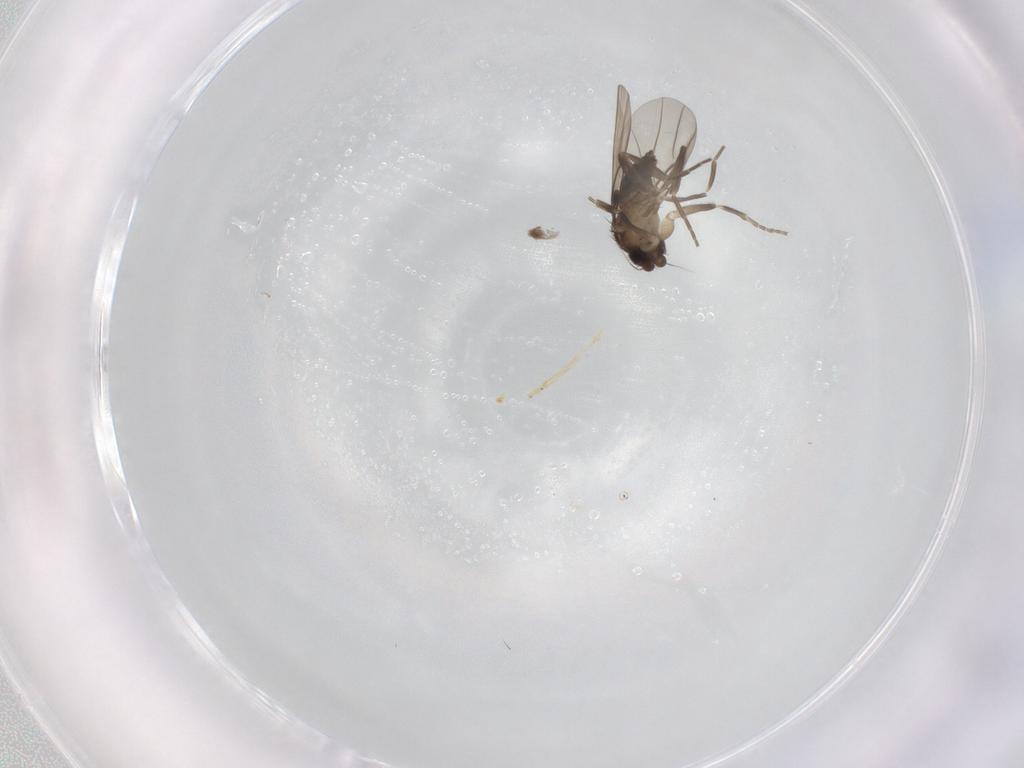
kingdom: Animalia
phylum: Arthropoda
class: Insecta
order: Diptera
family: Phoridae
